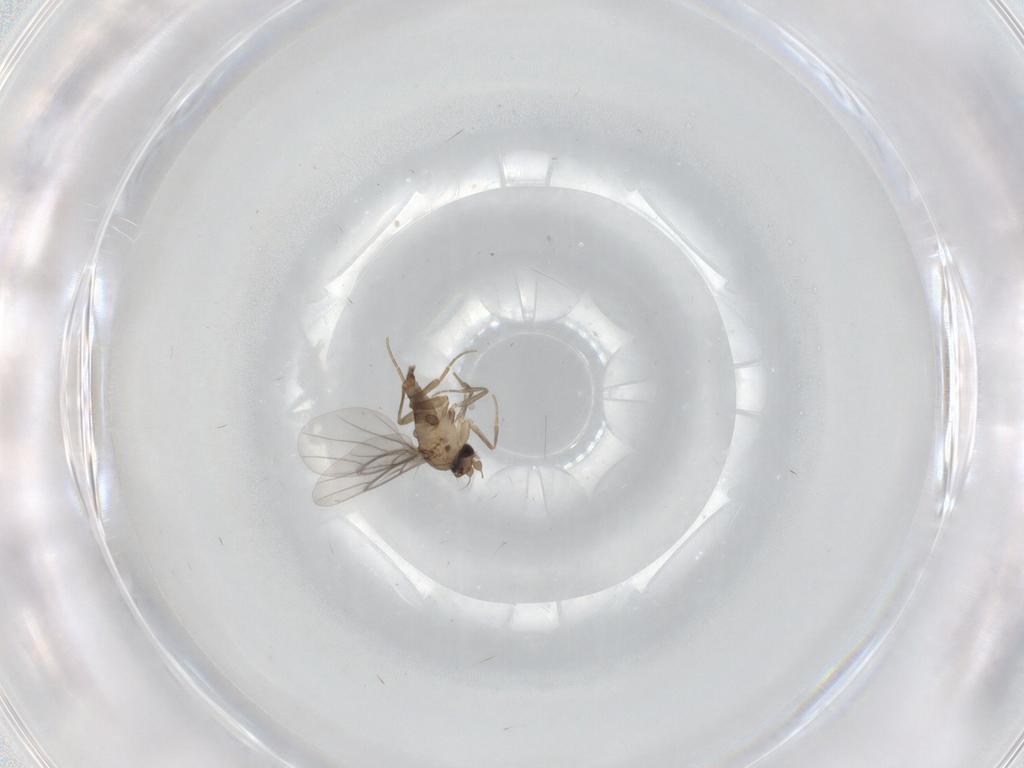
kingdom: Animalia
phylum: Arthropoda
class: Insecta
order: Diptera
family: Cecidomyiidae
